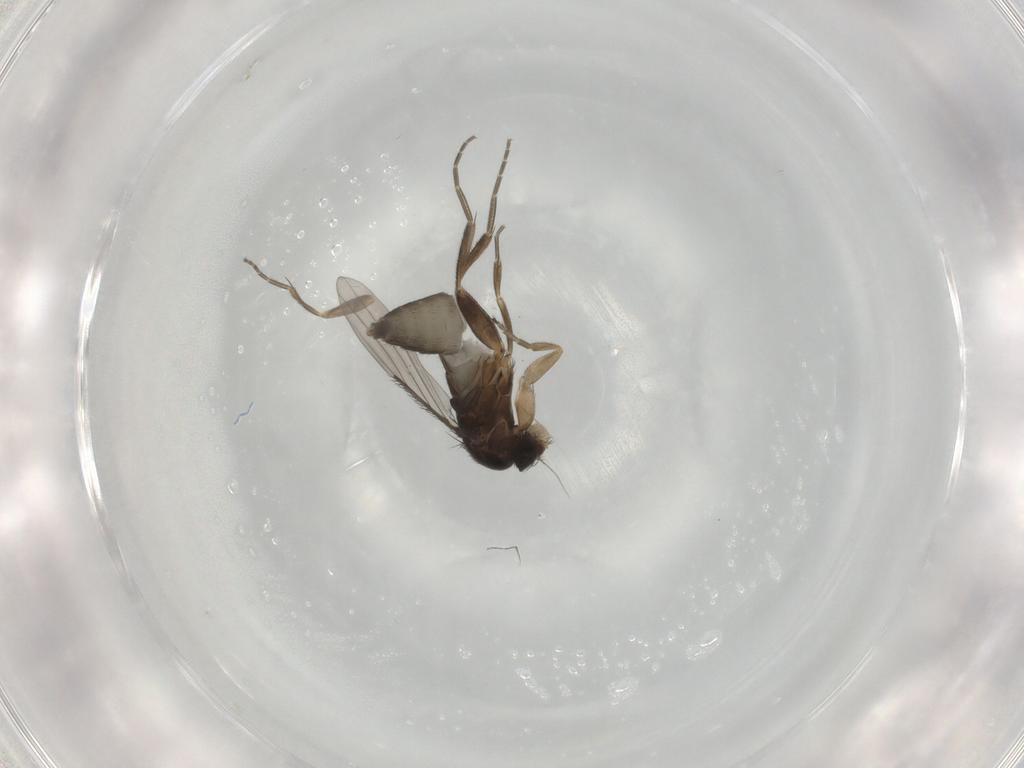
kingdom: Animalia
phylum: Arthropoda
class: Insecta
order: Diptera
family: Phoridae
